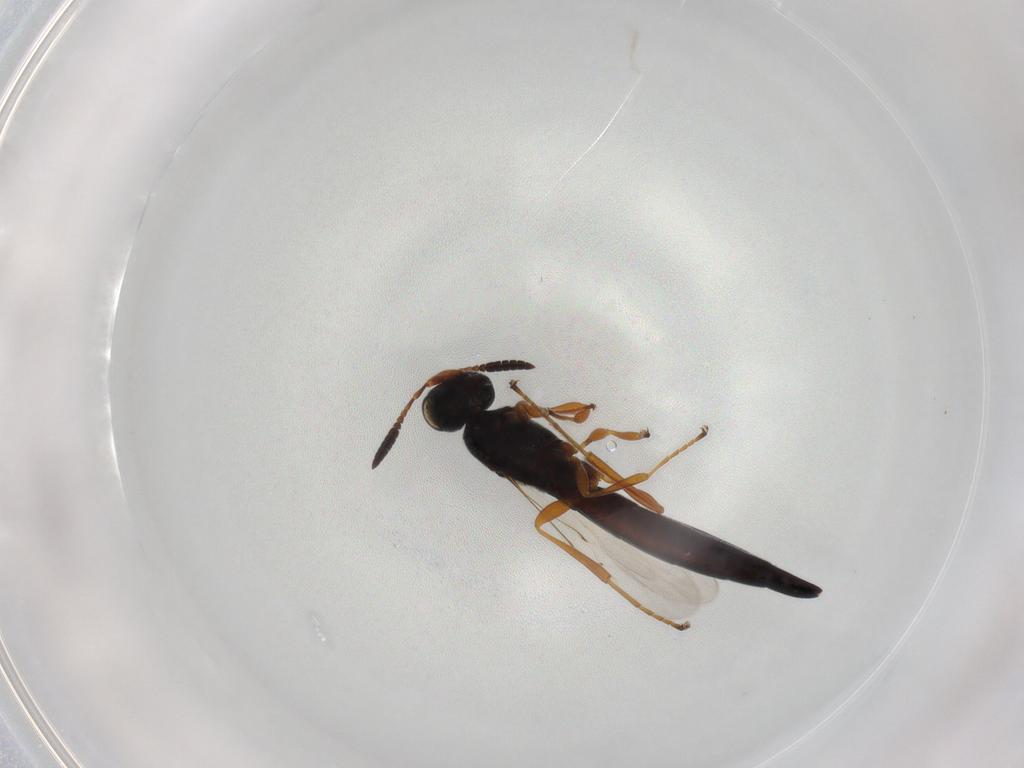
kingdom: Animalia
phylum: Arthropoda
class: Insecta
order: Hymenoptera
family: Scelionidae
